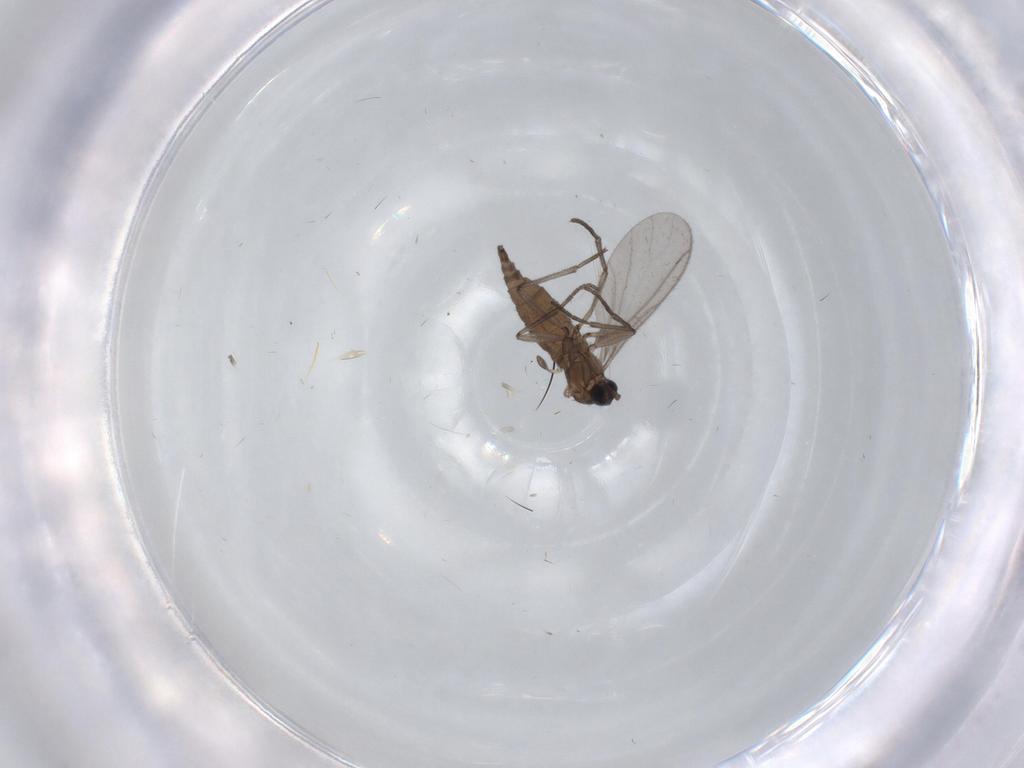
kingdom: Animalia
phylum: Arthropoda
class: Insecta
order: Diptera
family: Sciaridae
